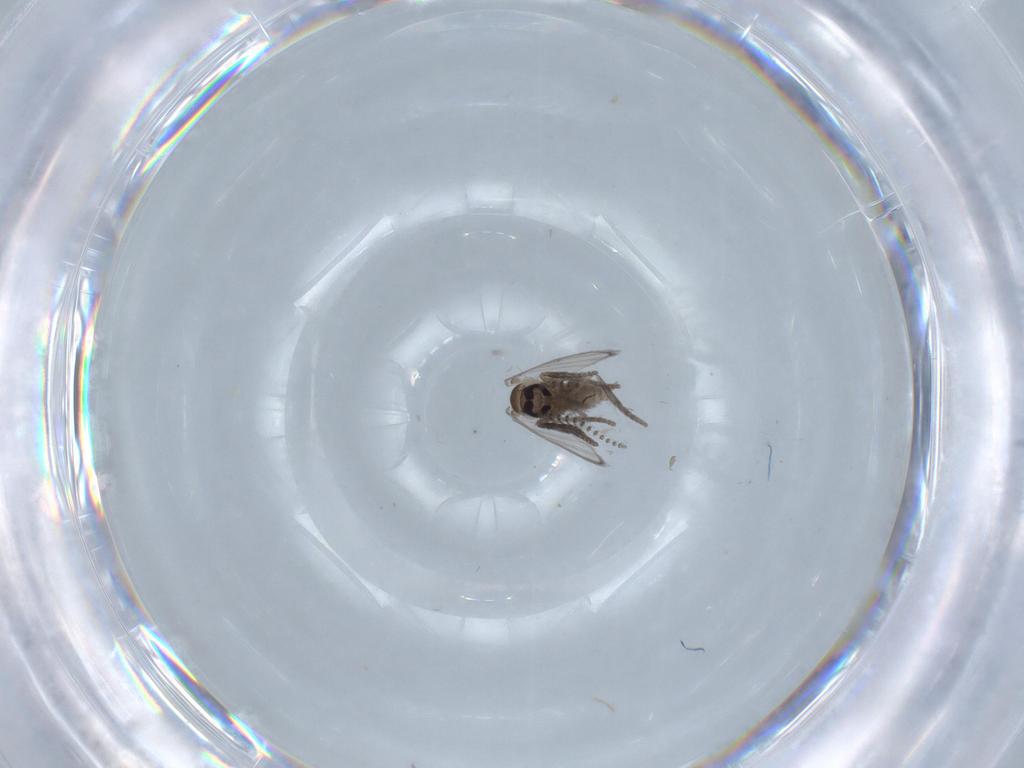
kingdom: Animalia
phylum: Arthropoda
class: Insecta
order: Diptera
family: Psychodidae
